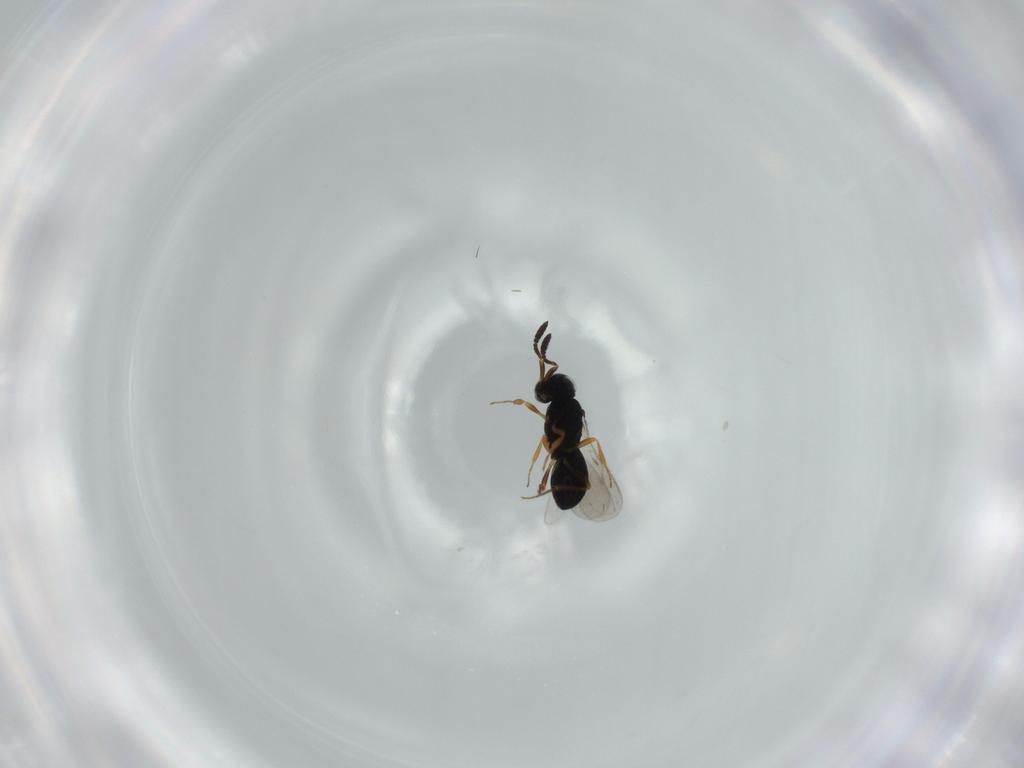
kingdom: Animalia
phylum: Arthropoda
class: Insecta
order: Hymenoptera
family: Scelionidae
